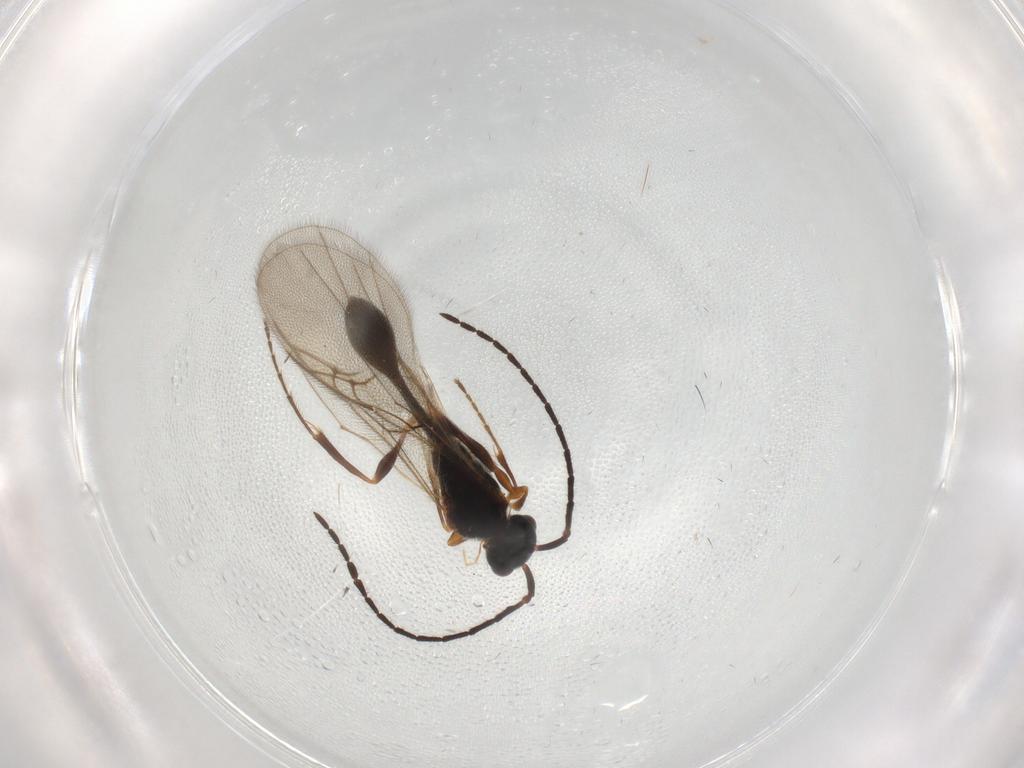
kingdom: Animalia
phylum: Arthropoda
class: Insecta
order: Hymenoptera
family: Diapriidae
